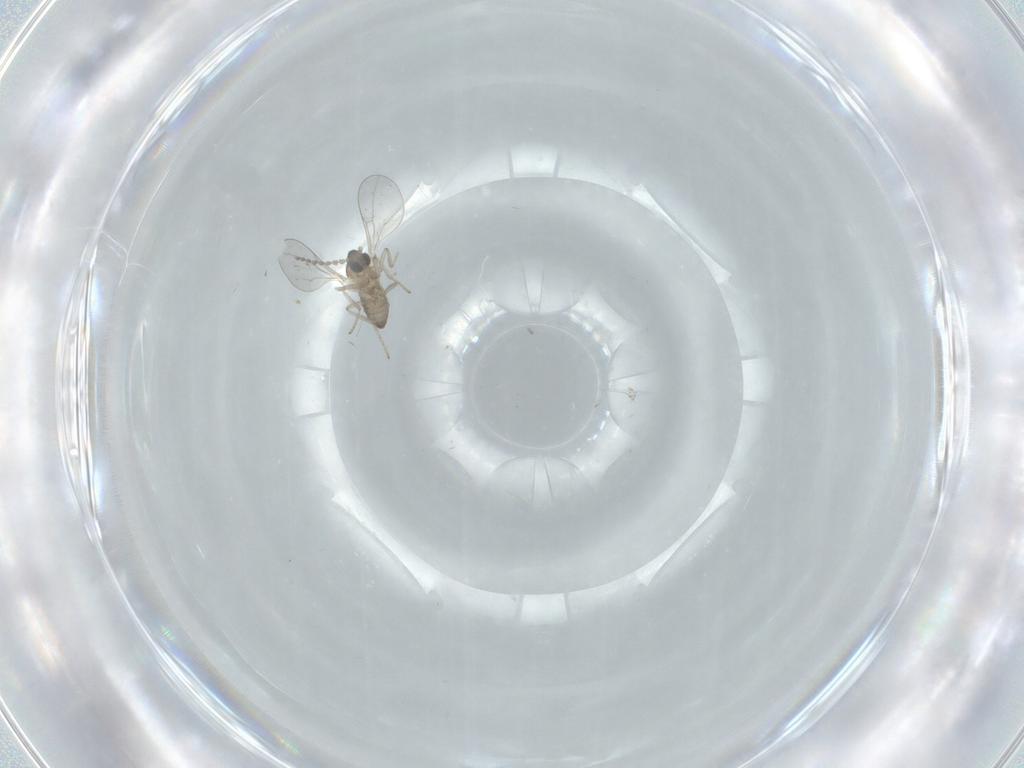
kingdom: Animalia
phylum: Arthropoda
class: Insecta
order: Diptera
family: Cecidomyiidae
